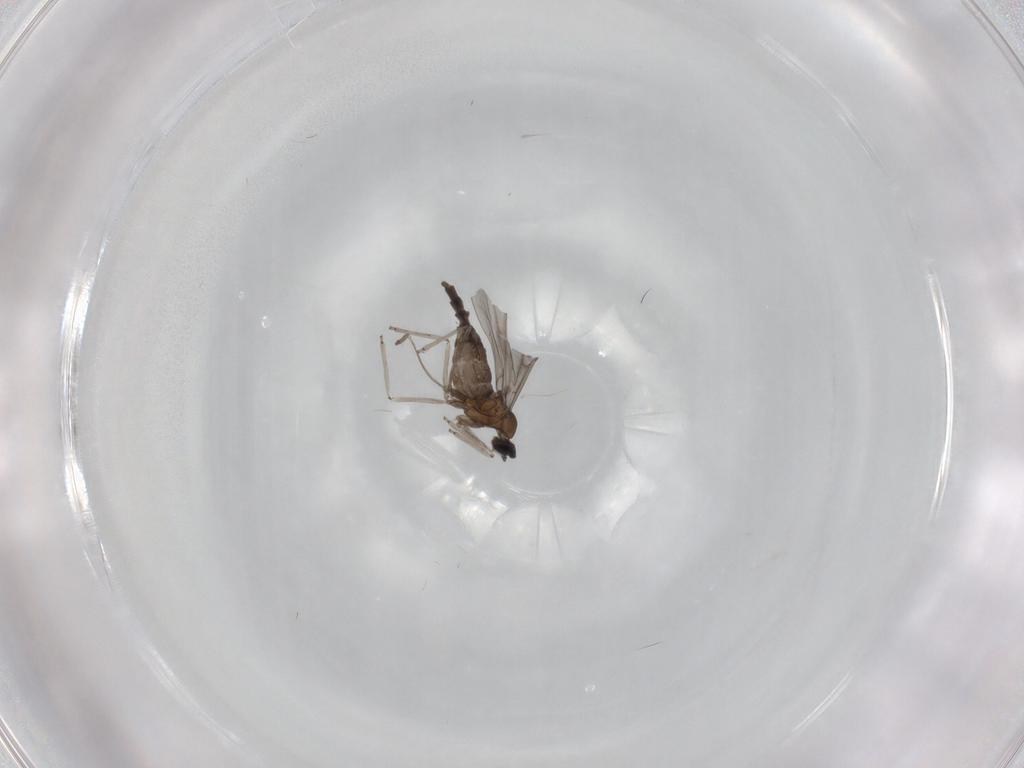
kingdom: Animalia
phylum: Arthropoda
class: Insecta
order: Diptera
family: Cecidomyiidae
